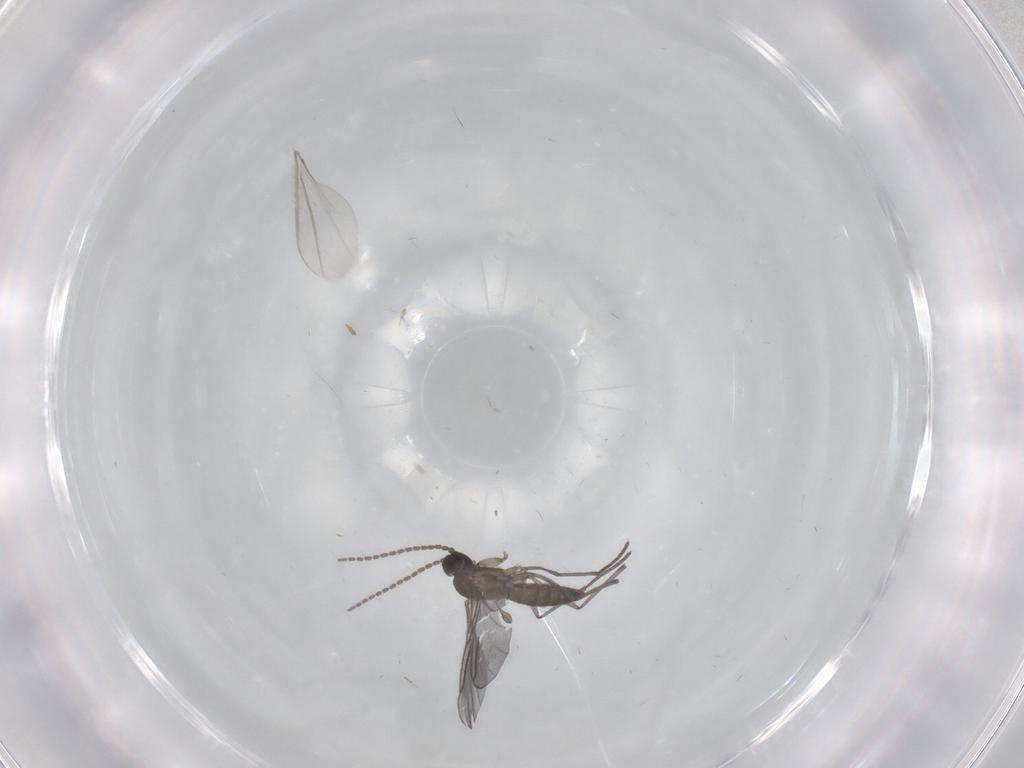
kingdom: Animalia
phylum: Arthropoda
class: Insecta
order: Diptera
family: Sciaridae
